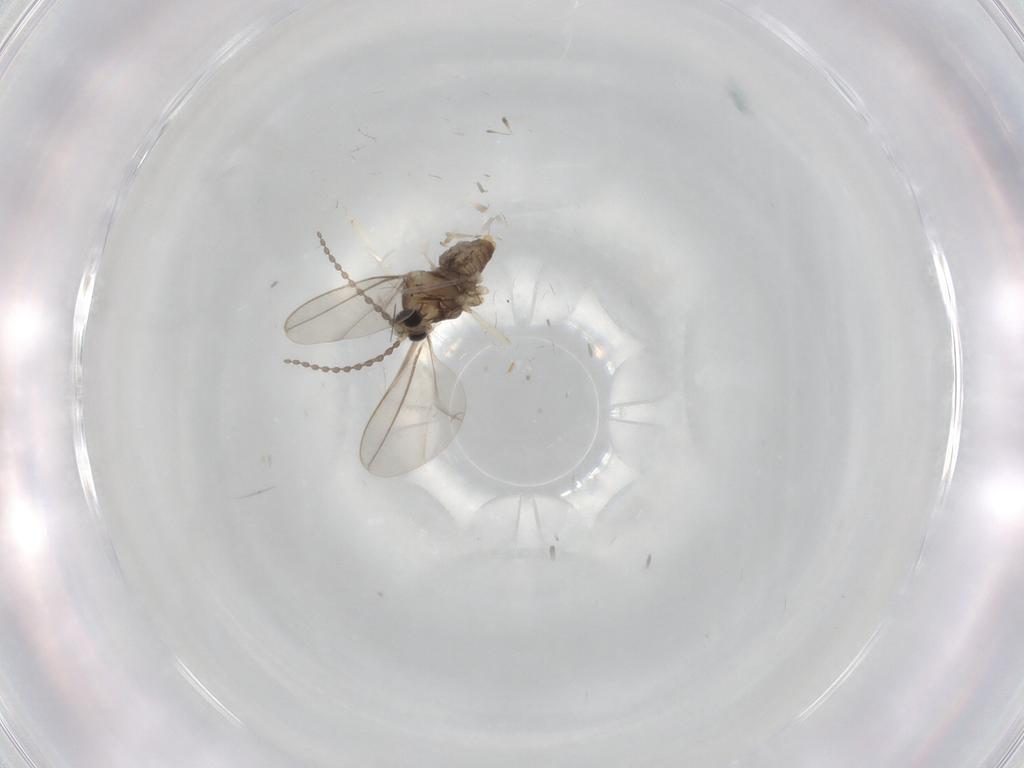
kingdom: Animalia
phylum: Arthropoda
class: Insecta
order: Diptera
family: Cecidomyiidae
